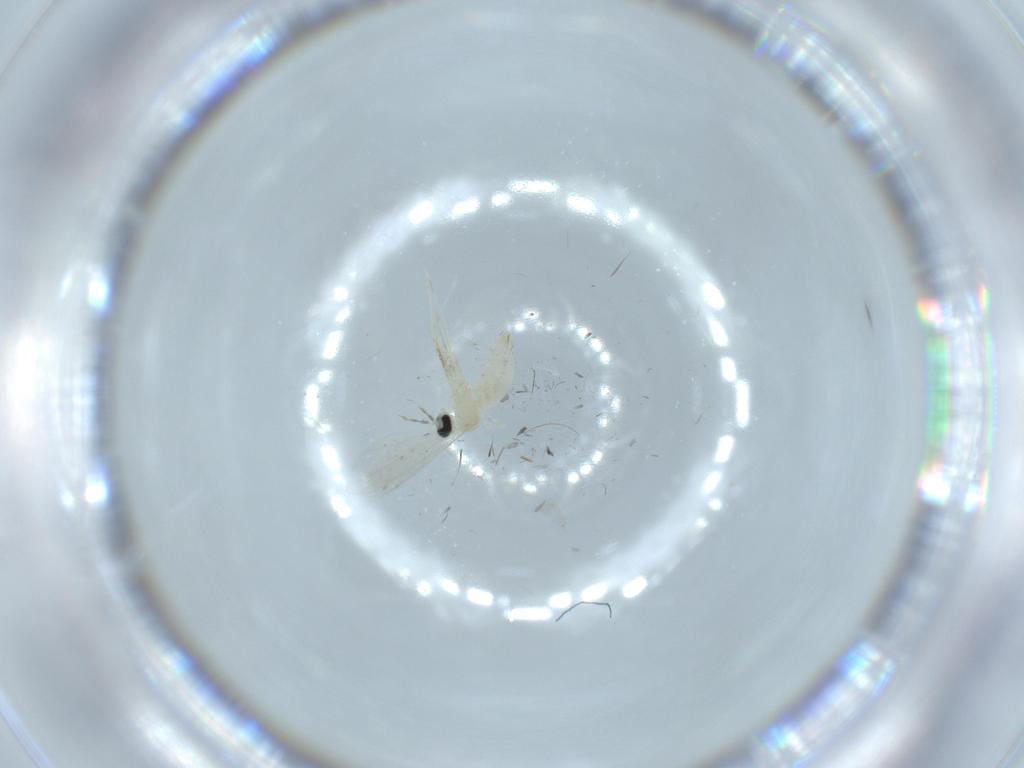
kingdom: Animalia
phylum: Arthropoda
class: Insecta
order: Diptera
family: Cecidomyiidae
